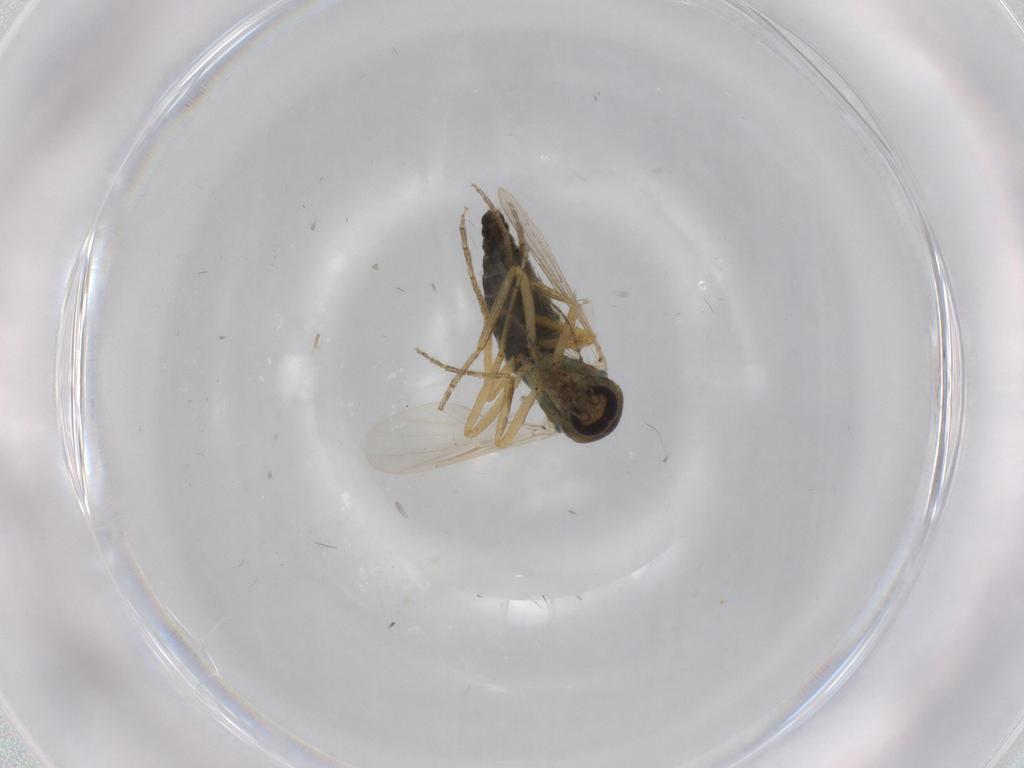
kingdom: Animalia
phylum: Arthropoda
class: Insecta
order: Diptera
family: Ceratopogonidae
